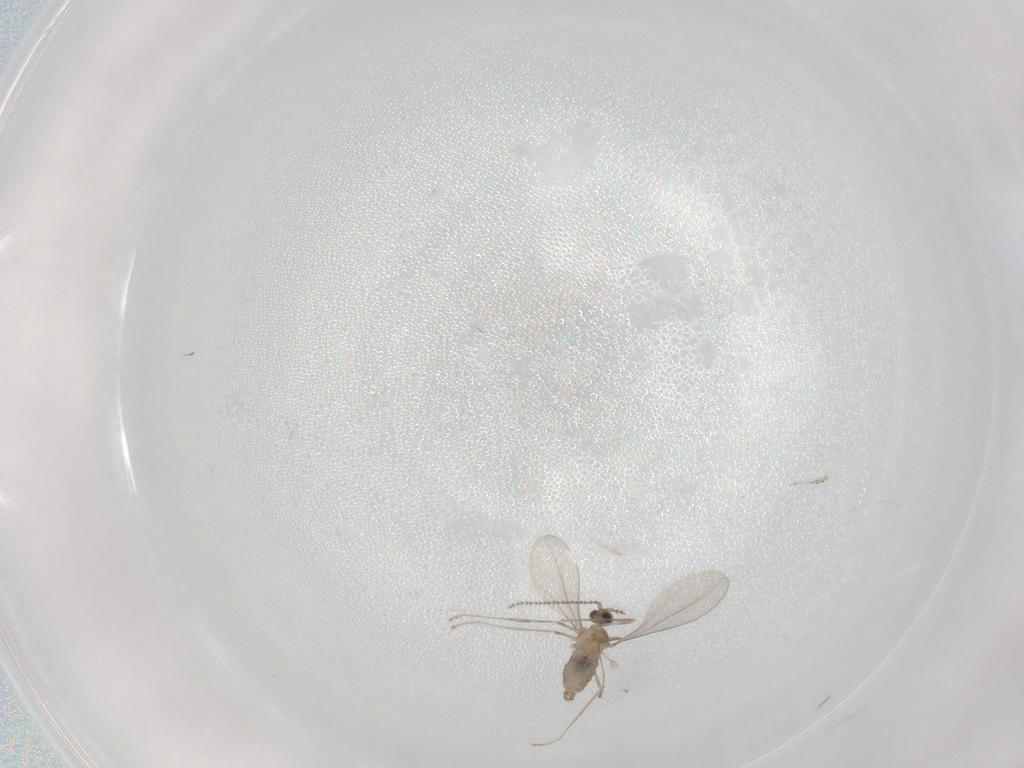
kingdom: Animalia
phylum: Arthropoda
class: Insecta
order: Diptera
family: Cecidomyiidae
